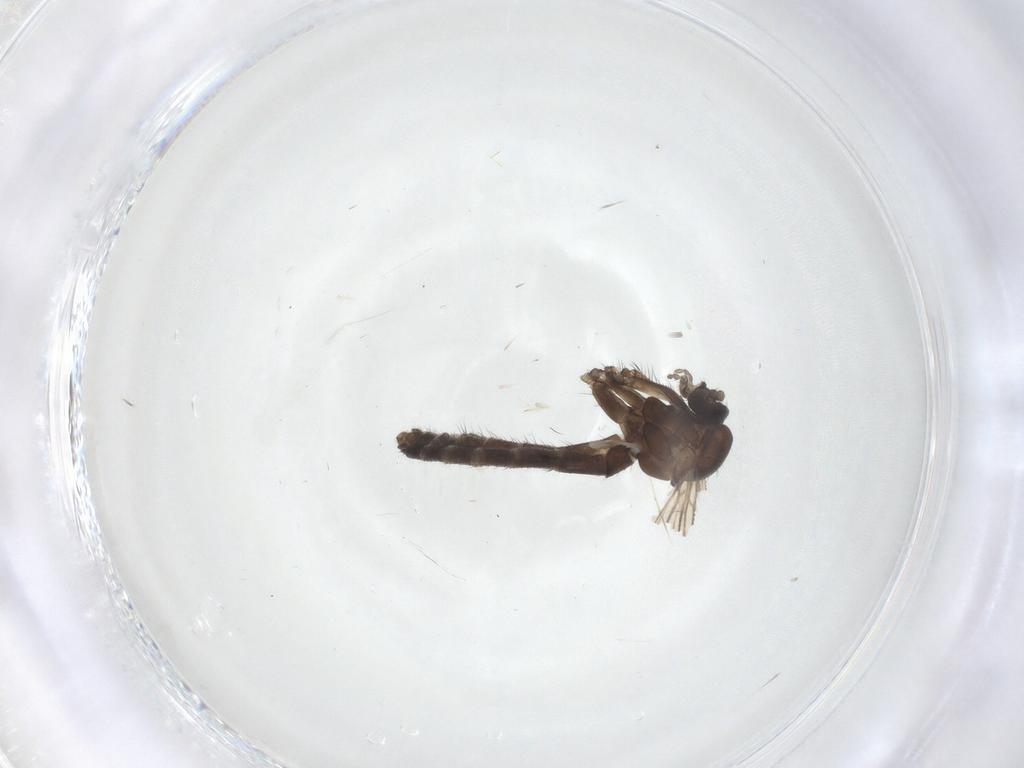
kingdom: Animalia
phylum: Arthropoda
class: Insecta
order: Diptera
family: Keroplatidae
